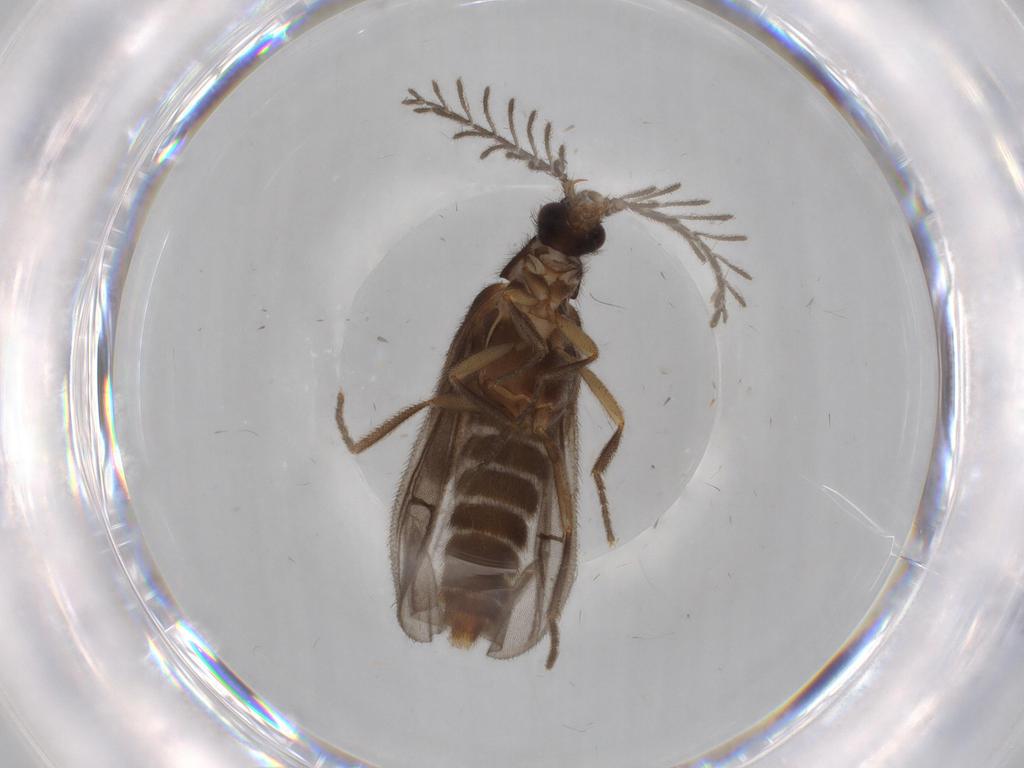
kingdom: Animalia
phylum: Arthropoda
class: Insecta
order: Coleoptera
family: Scarabaeidae
